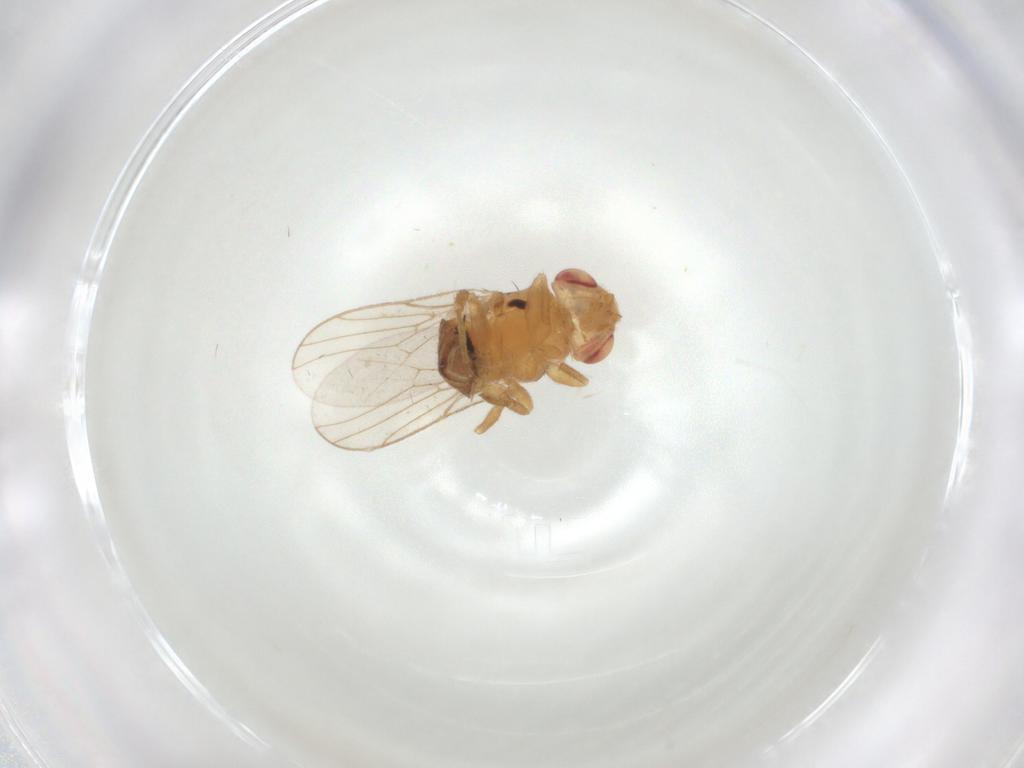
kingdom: Animalia
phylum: Arthropoda
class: Insecta
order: Diptera
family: Chloropidae
